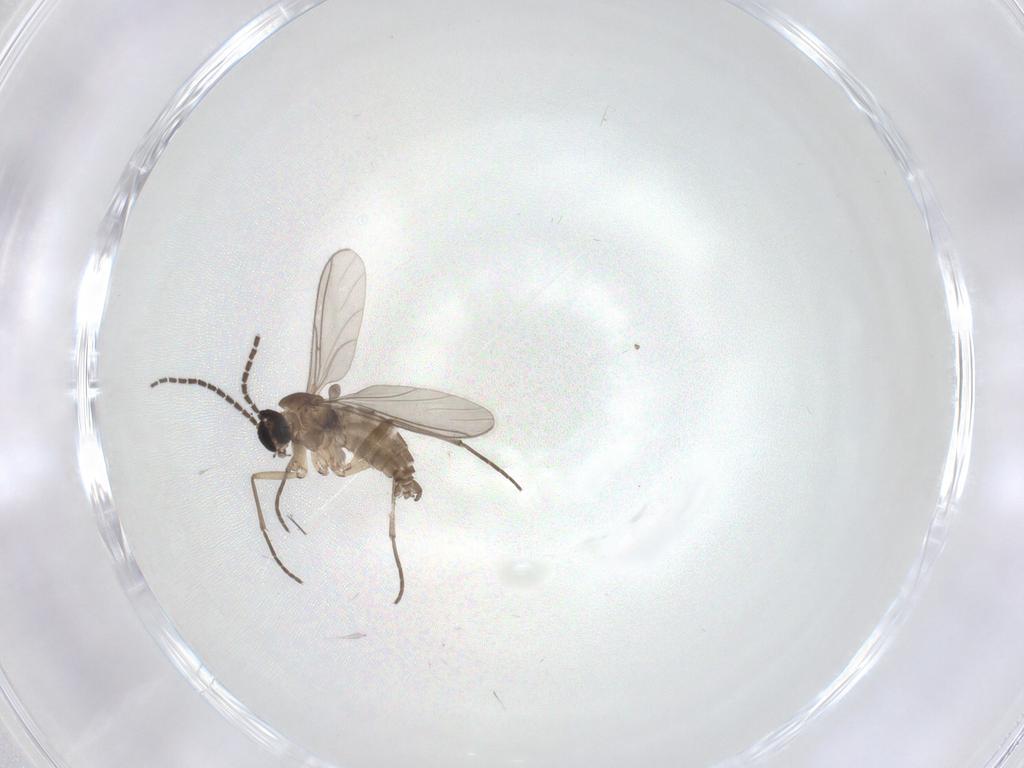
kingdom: Animalia
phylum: Arthropoda
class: Insecta
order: Diptera
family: Sciaridae
